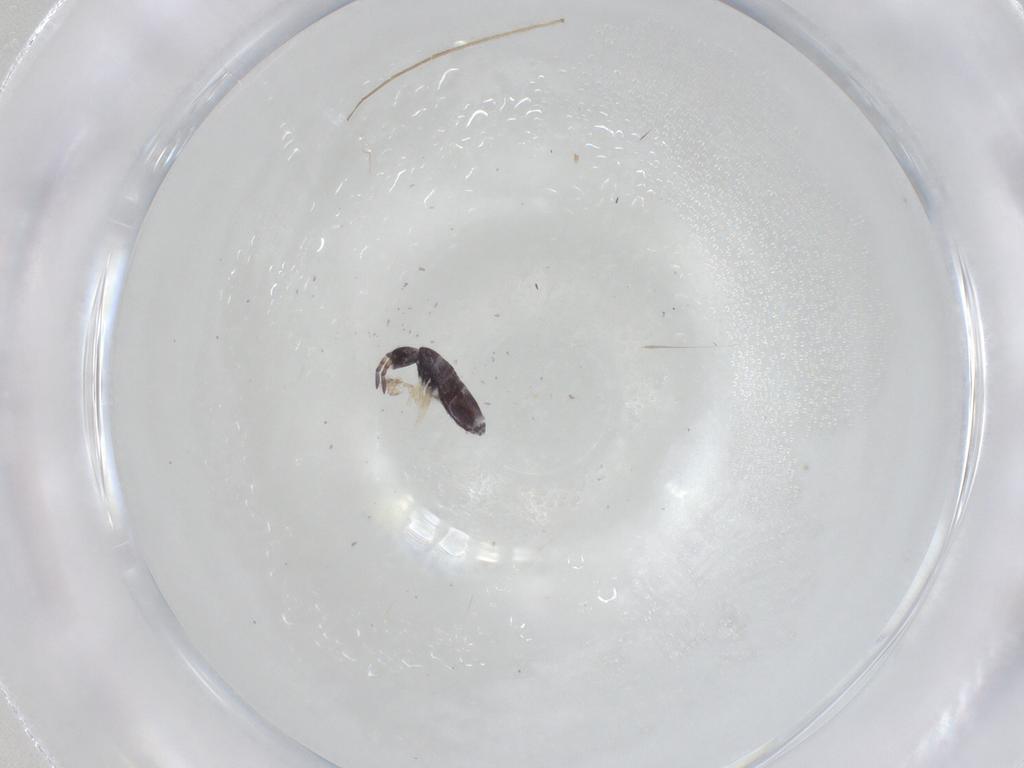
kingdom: Animalia
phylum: Arthropoda
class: Collembola
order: Entomobryomorpha
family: Entomobryidae
